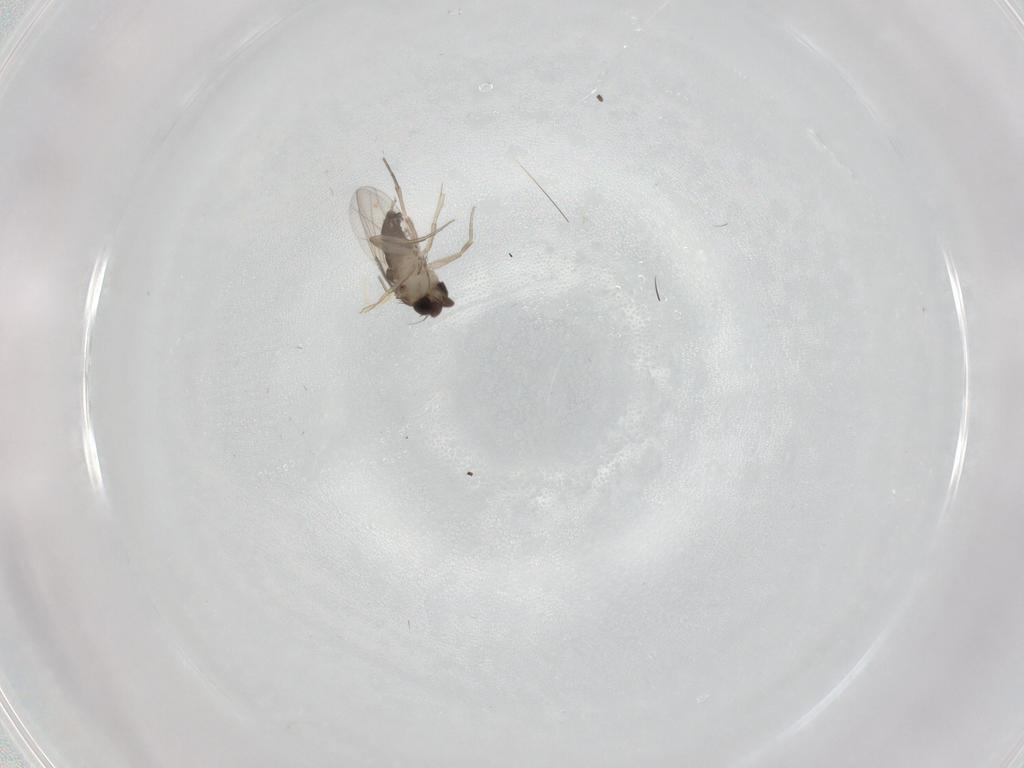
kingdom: Animalia
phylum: Arthropoda
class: Insecta
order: Diptera
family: Phoridae
